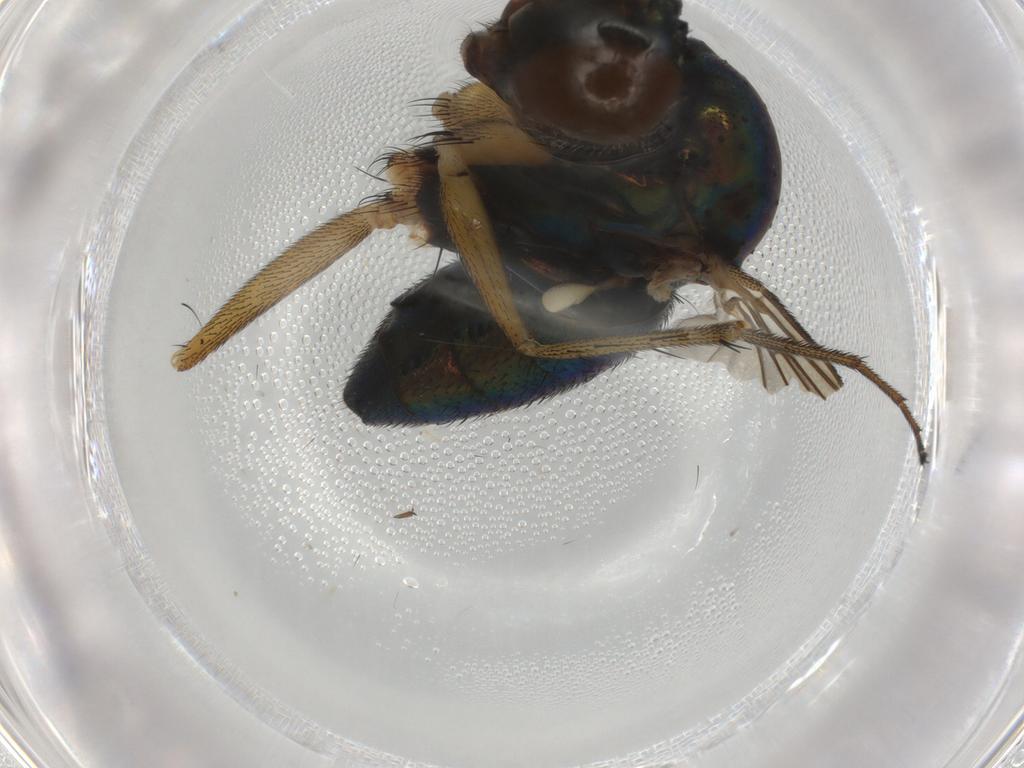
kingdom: Animalia
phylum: Arthropoda
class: Insecta
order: Diptera
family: Dolichopodidae
